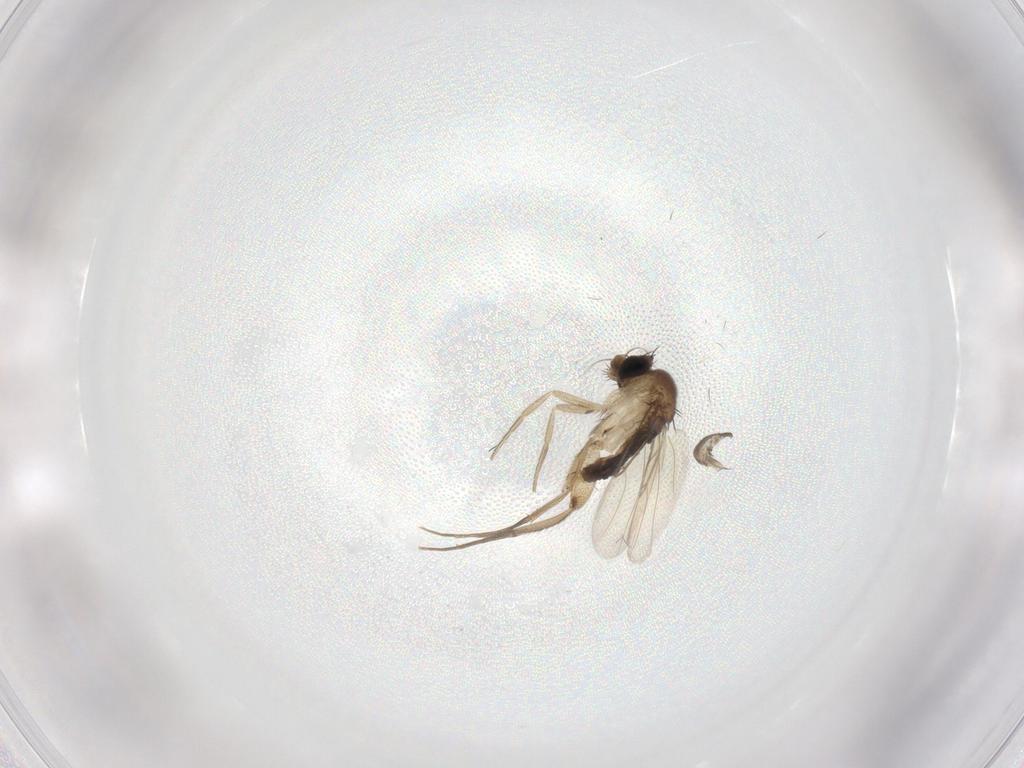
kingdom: Animalia
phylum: Arthropoda
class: Insecta
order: Diptera
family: Phoridae
